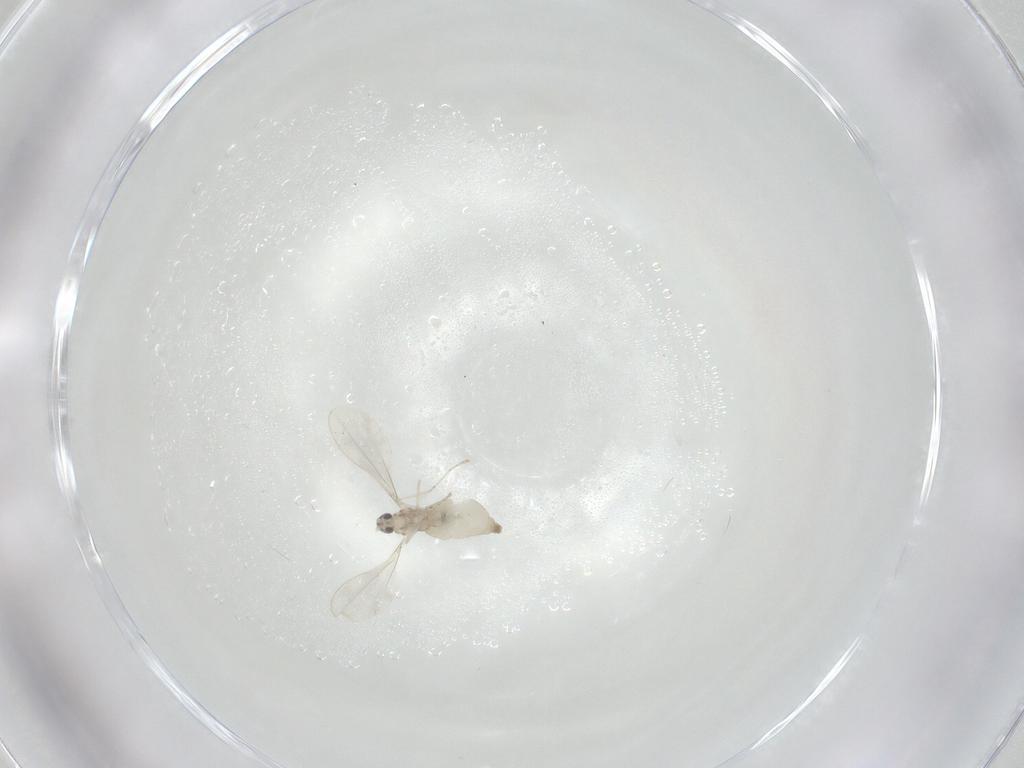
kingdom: Animalia
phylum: Arthropoda
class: Insecta
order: Diptera
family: Cecidomyiidae
